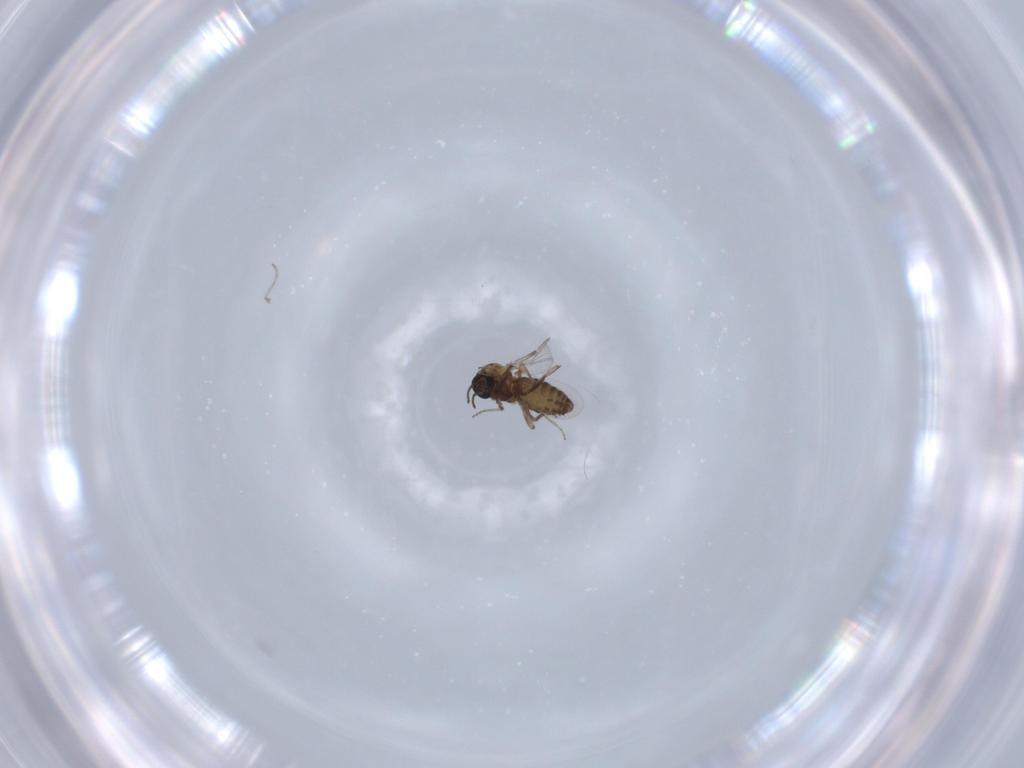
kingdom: Animalia
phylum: Arthropoda
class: Insecta
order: Diptera
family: Ceratopogonidae
